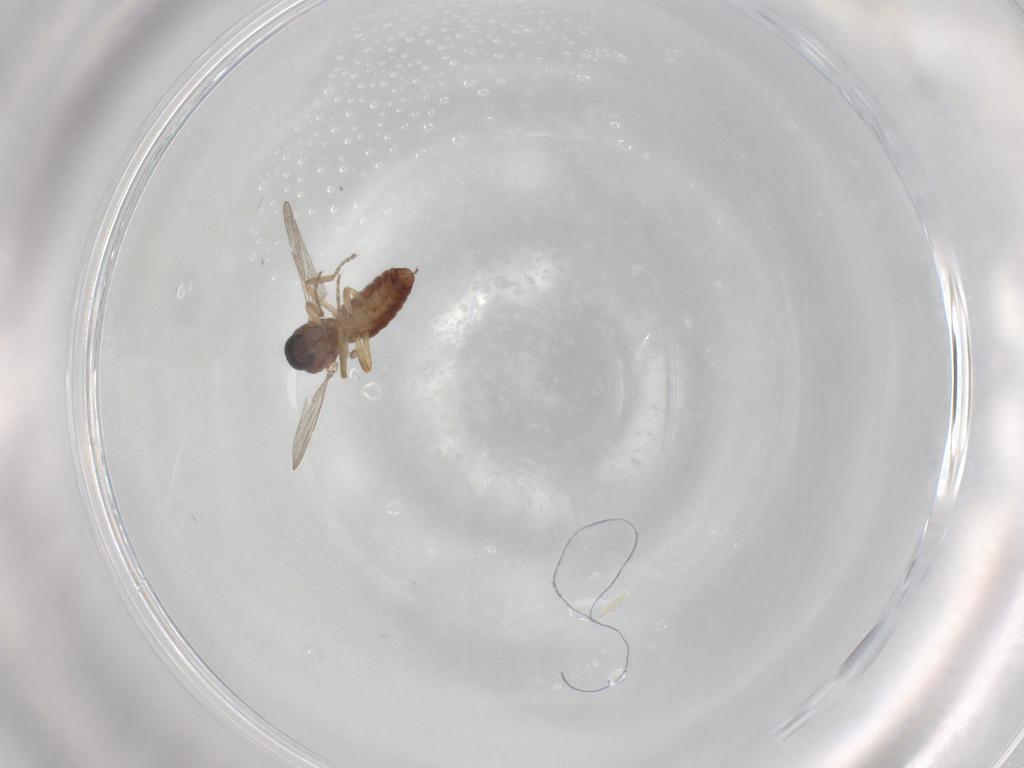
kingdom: Animalia
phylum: Arthropoda
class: Insecta
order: Diptera
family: Ceratopogonidae
